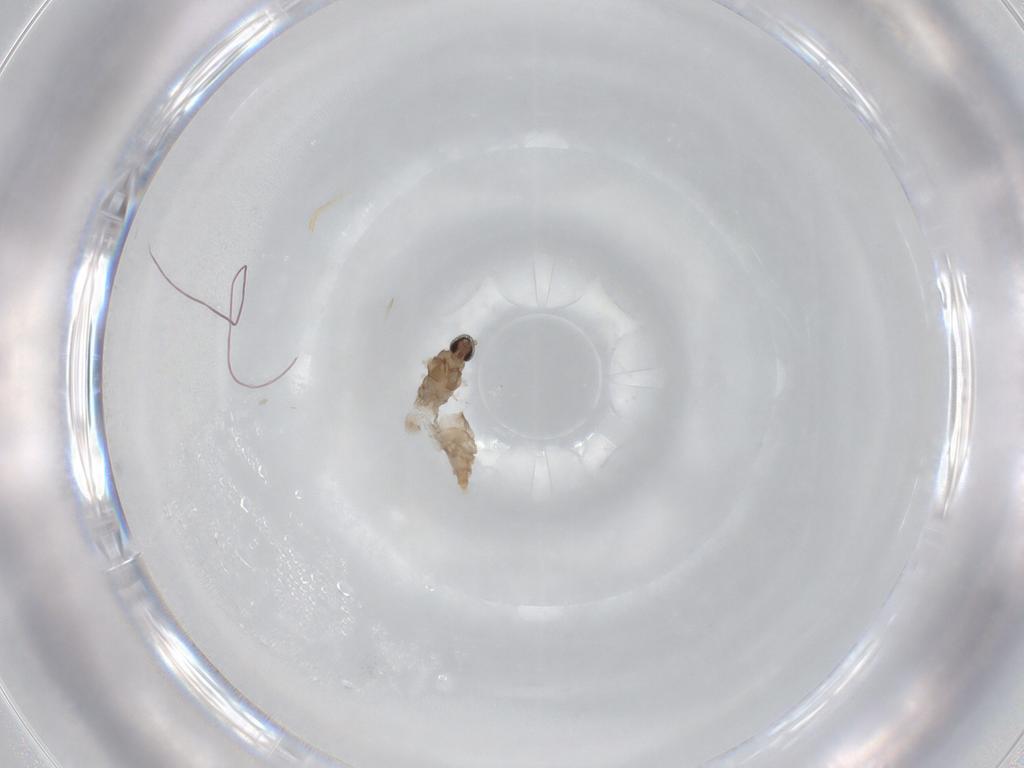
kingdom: Animalia
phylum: Arthropoda
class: Insecta
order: Diptera
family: Cecidomyiidae
